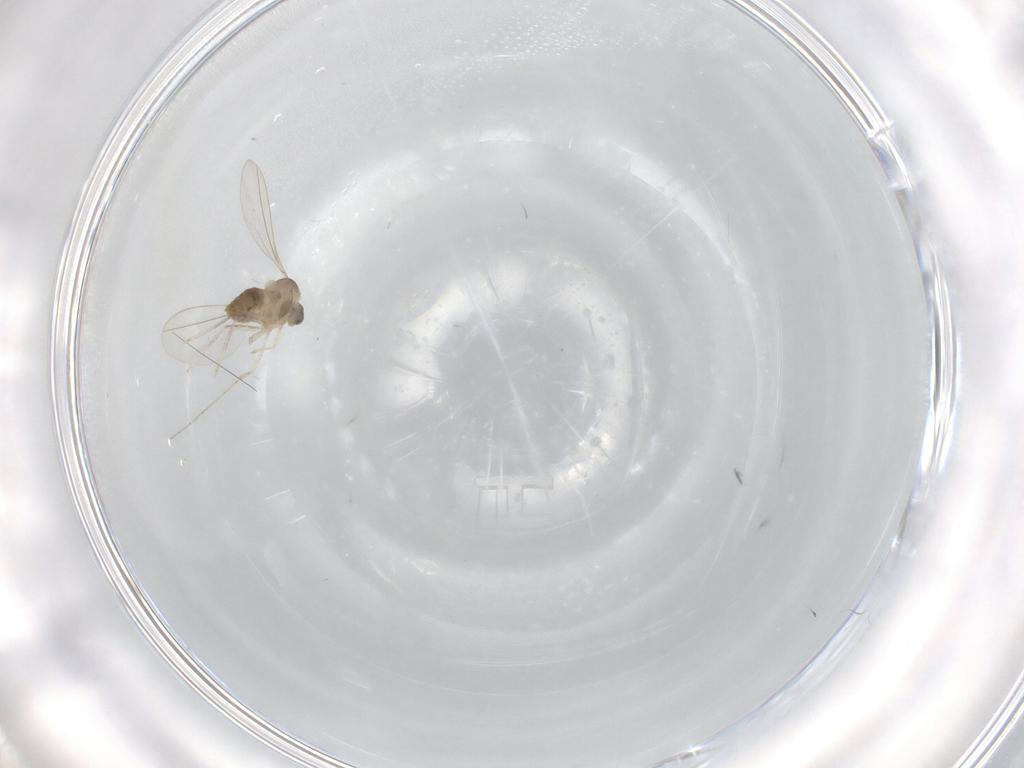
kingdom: Animalia
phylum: Arthropoda
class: Insecta
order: Diptera
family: Cecidomyiidae
